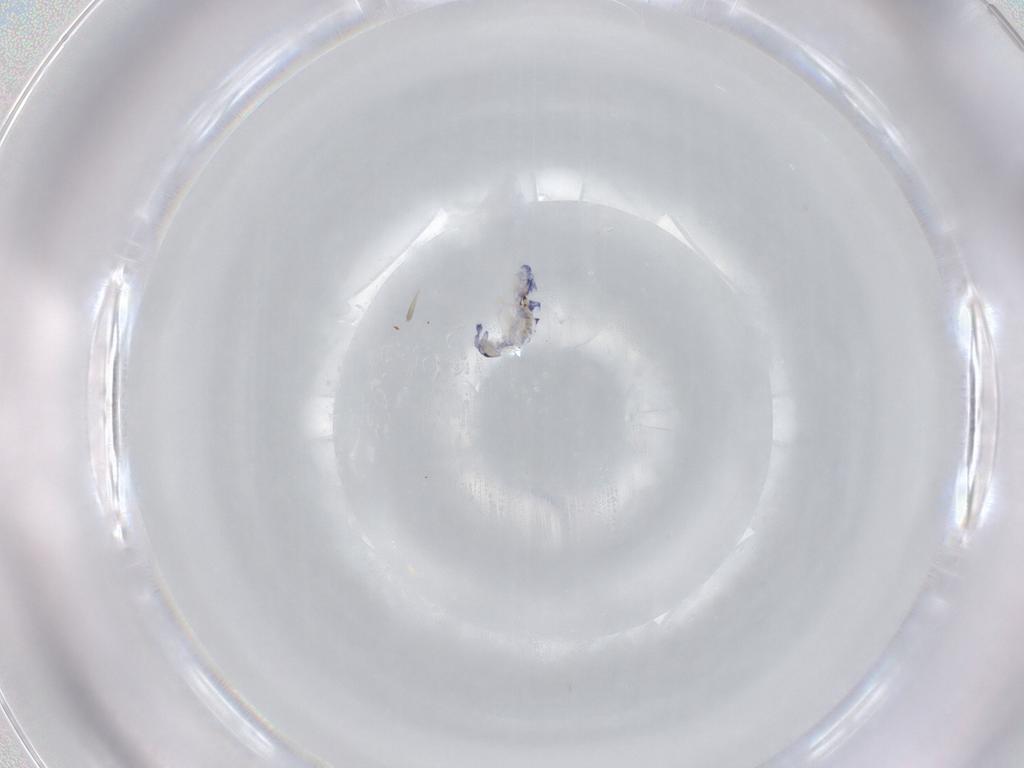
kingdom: Animalia
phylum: Arthropoda
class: Collembola
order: Entomobryomorpha
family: Entomobryidae
